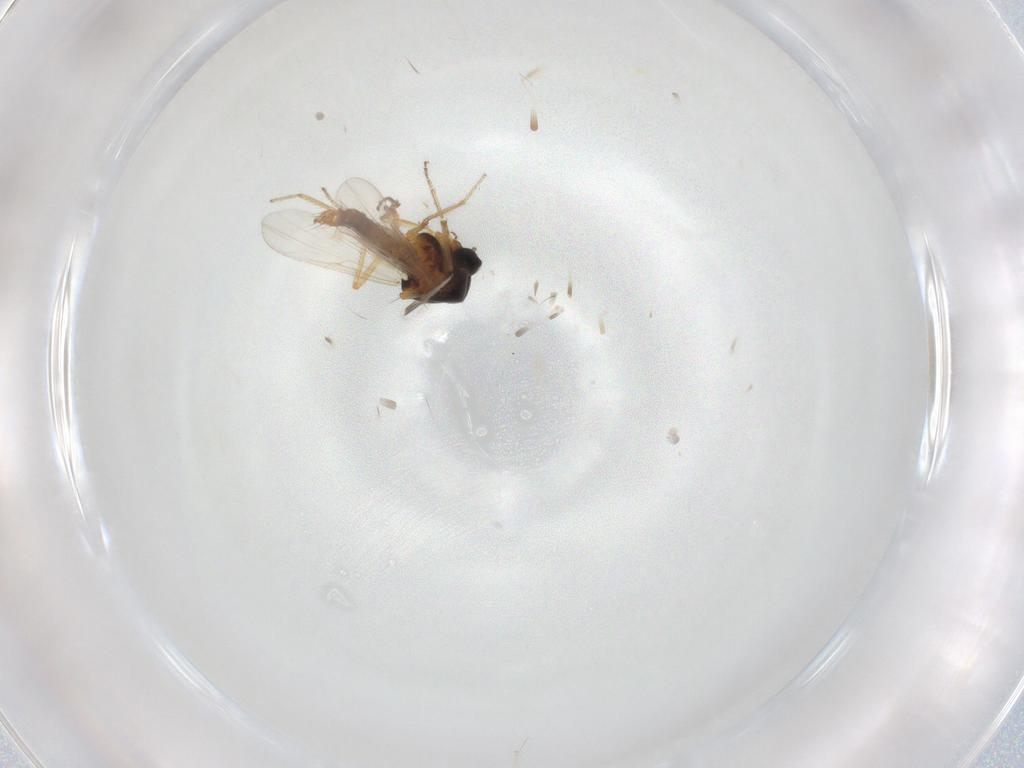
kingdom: Animalia
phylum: Arthropoda
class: Insecta
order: Diptera
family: Ceratopogonidae
